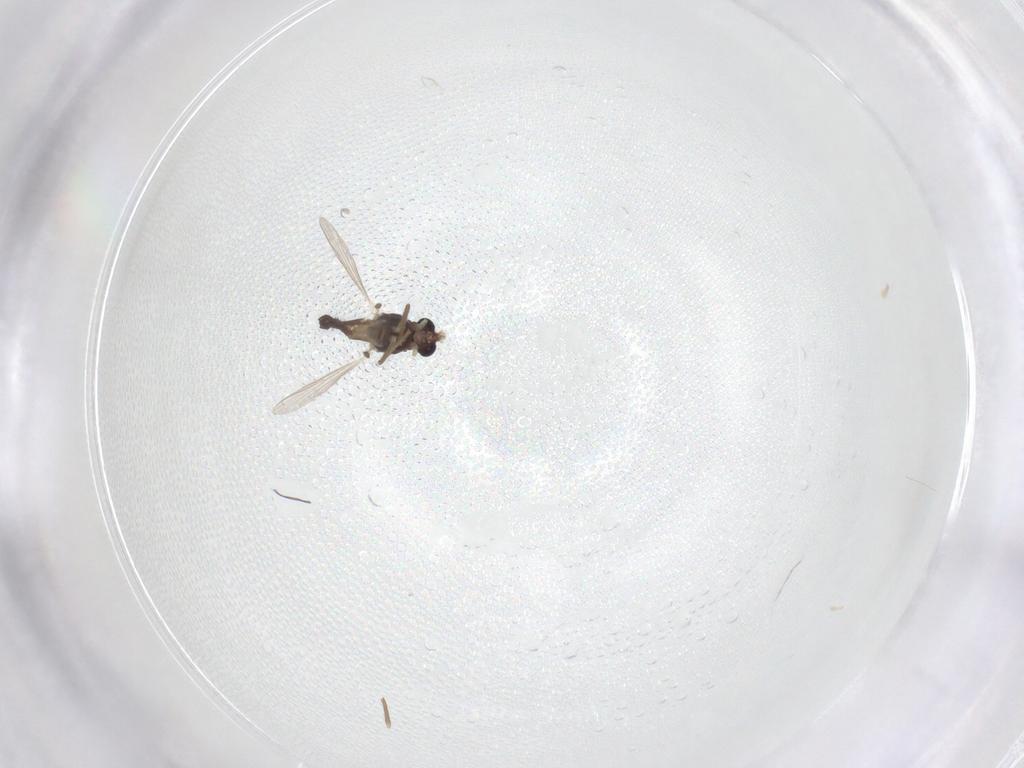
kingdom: Animalia
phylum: Arthropoda
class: Insecta
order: Diptera
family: Chironomidae
